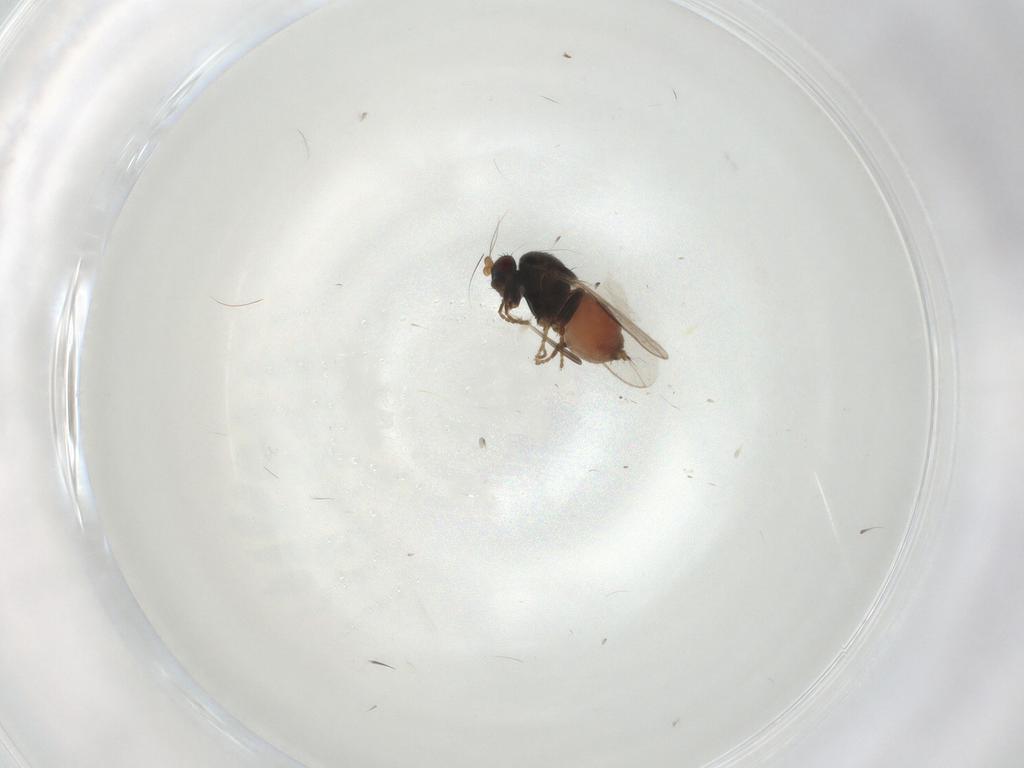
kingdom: Animalia
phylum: Arthropoda
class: Insecta
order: Diptera
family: Sphaeroceridae
